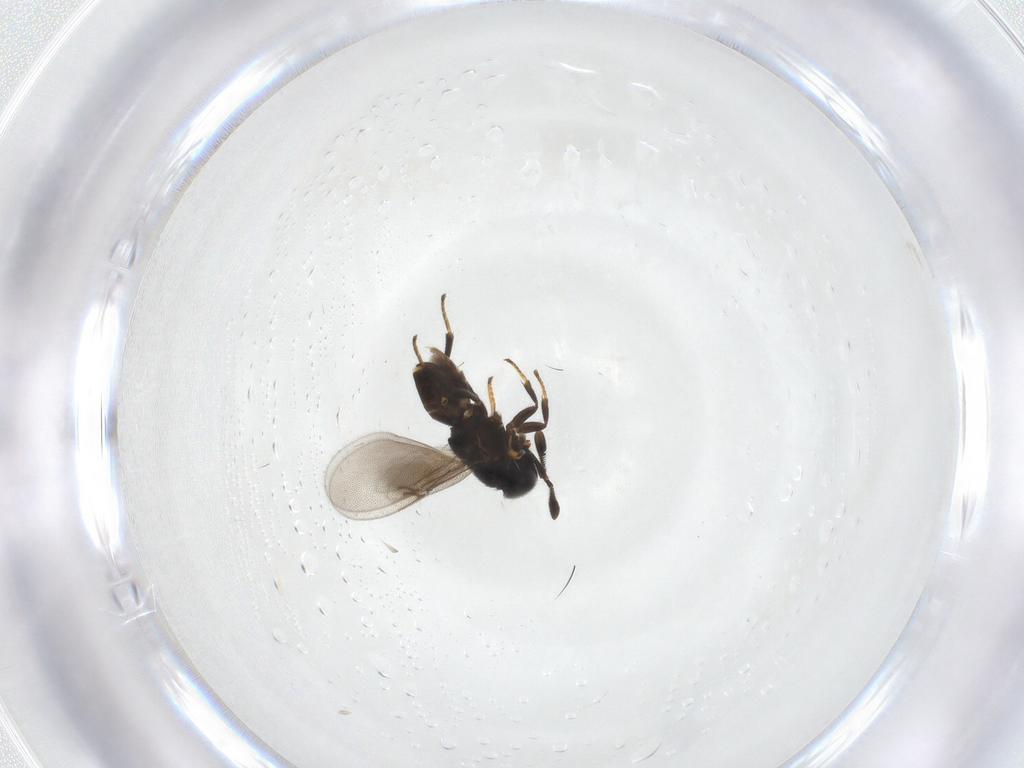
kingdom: Animalia
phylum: Arthropoda
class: Insecta
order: Hymenoptera
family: Encyrtidae
